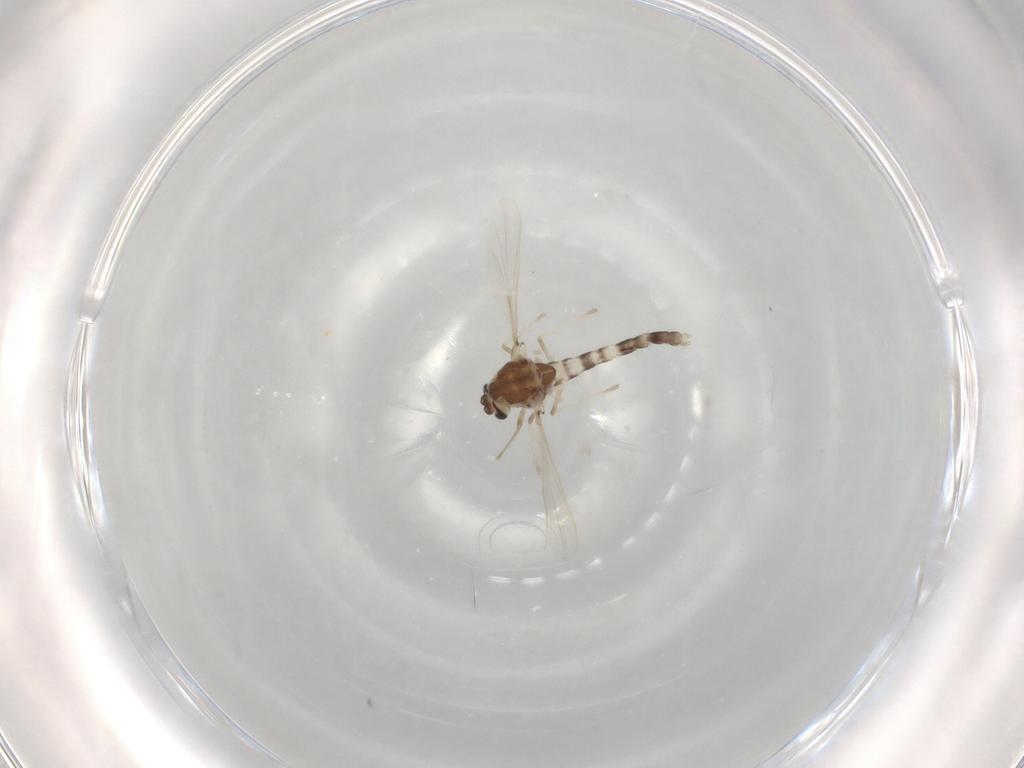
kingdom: Animalia
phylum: Arthropoda
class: Insecta
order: Diptera
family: Chironomidae
